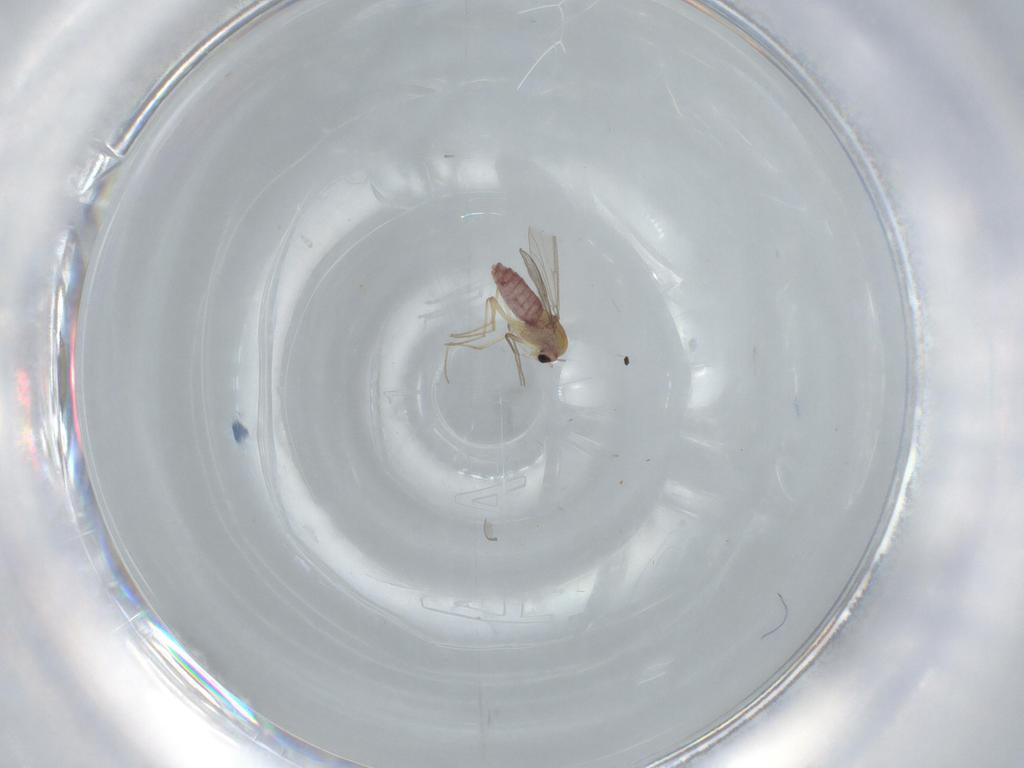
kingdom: Animalia
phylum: Arthropoda
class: Insecta
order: Diptera
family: Chironomidae
